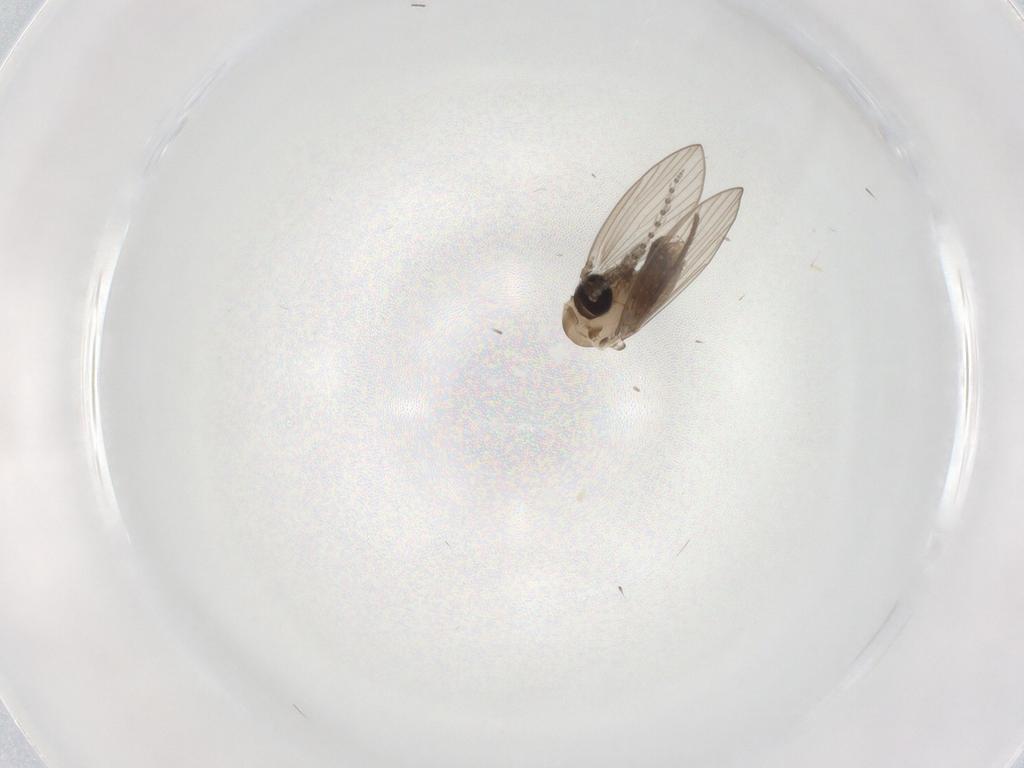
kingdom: Animalia
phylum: Arthropoda
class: Insecta
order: Diptera
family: Psychodidae
